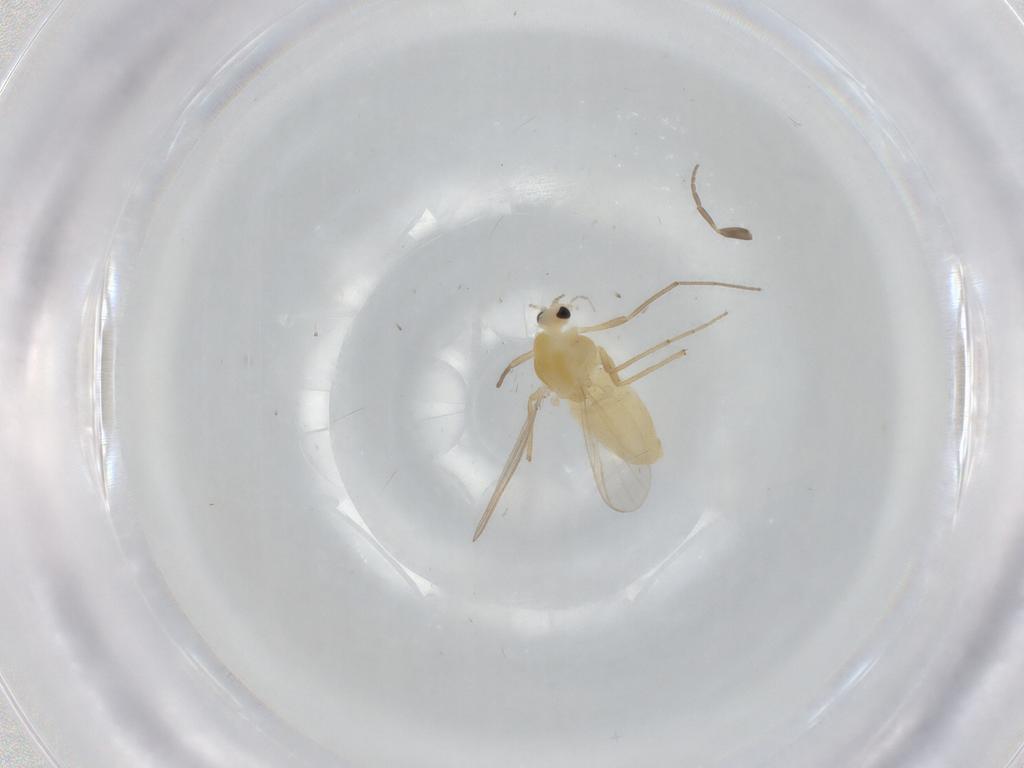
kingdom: Animalia
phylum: Arthropoda
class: Insecta
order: Diptera
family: Chironomidae
